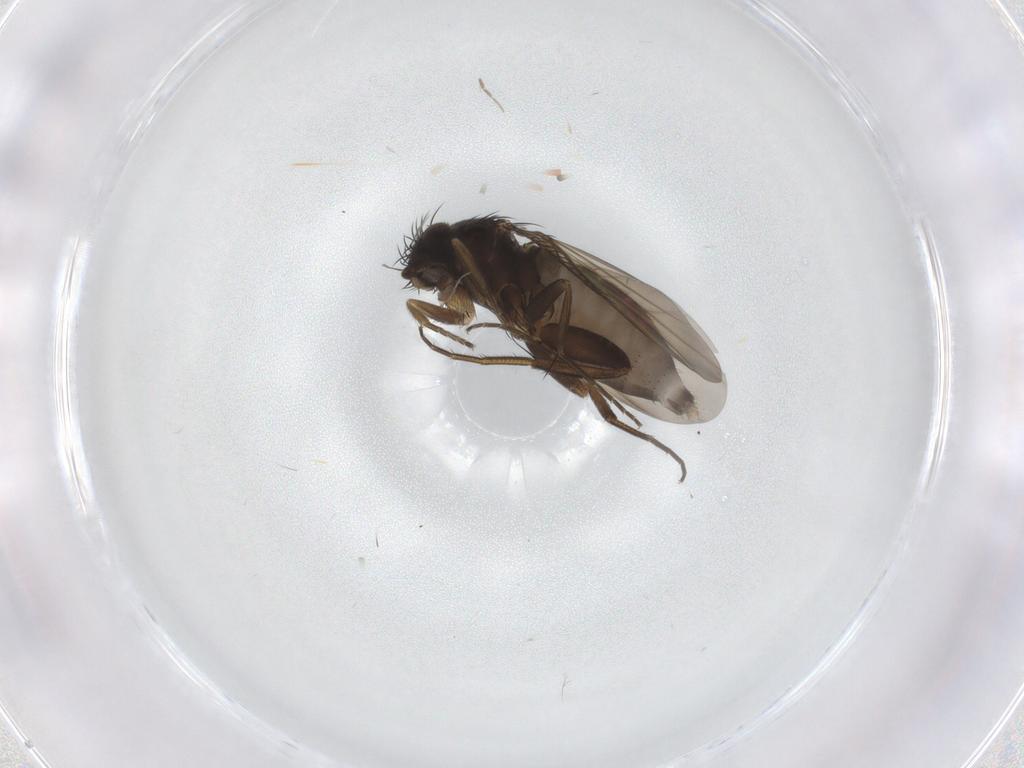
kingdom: Animalia
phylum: Arthropoda
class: Insecta
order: Diptera
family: Phoridae
